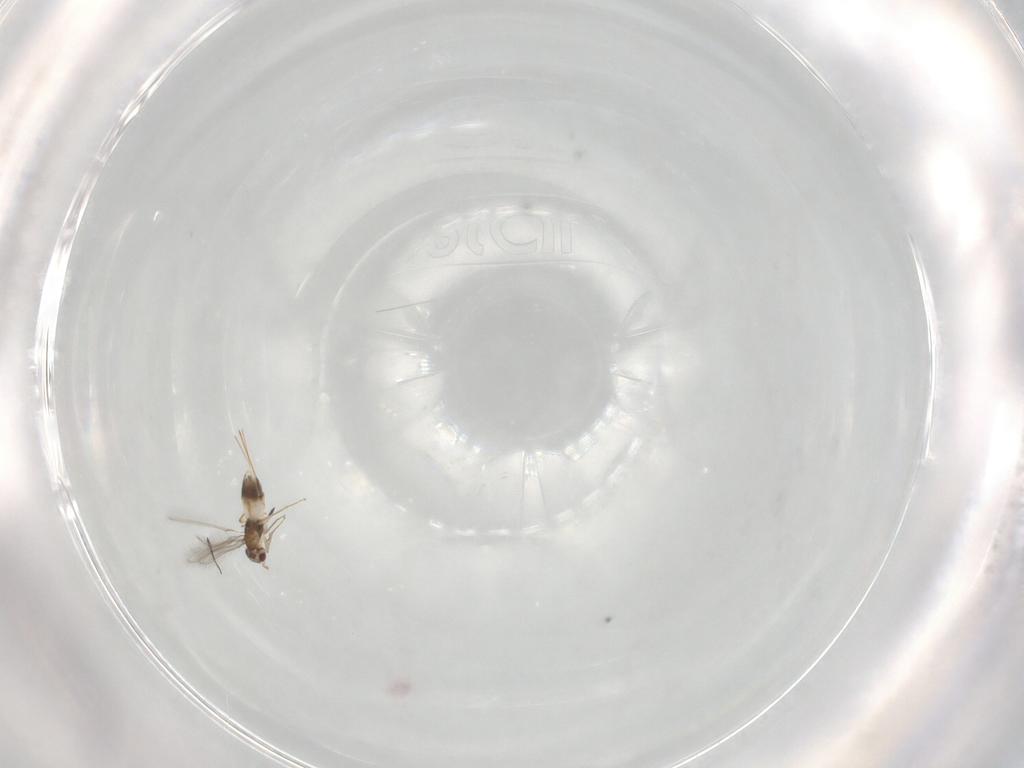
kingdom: Animalia
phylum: Arthropoda
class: Insecta
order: Hymenoptera
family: Mymaridae
